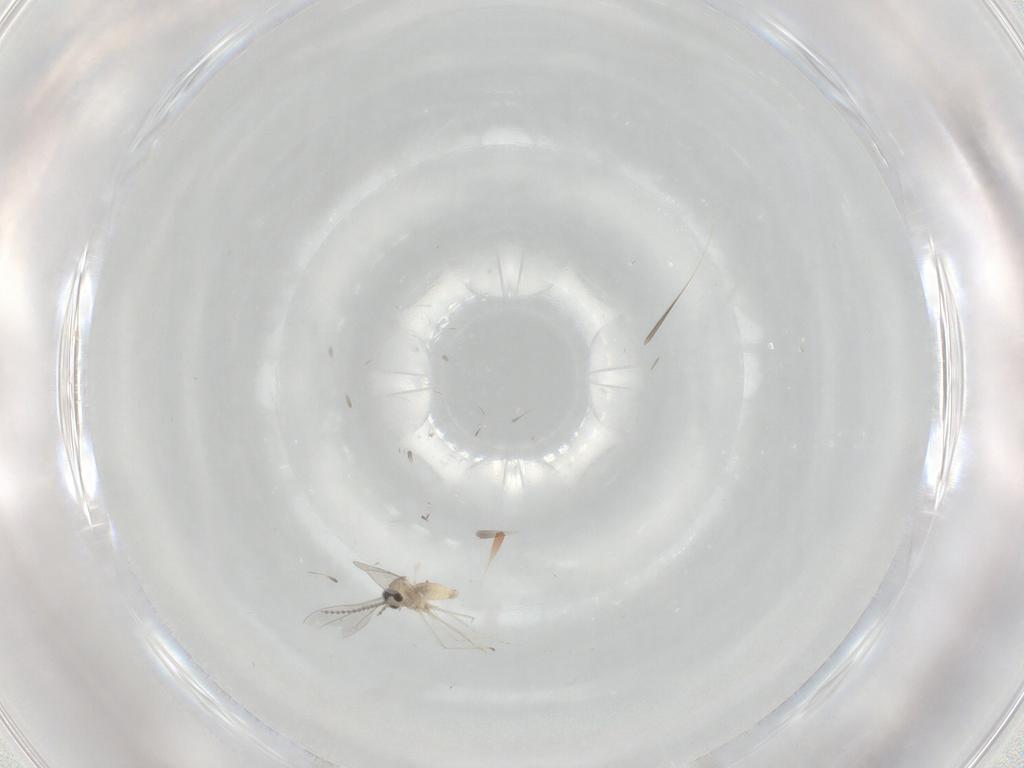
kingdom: Animalia
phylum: Arthropoda
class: Insecta
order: Diptera
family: Cecidomyiidae
